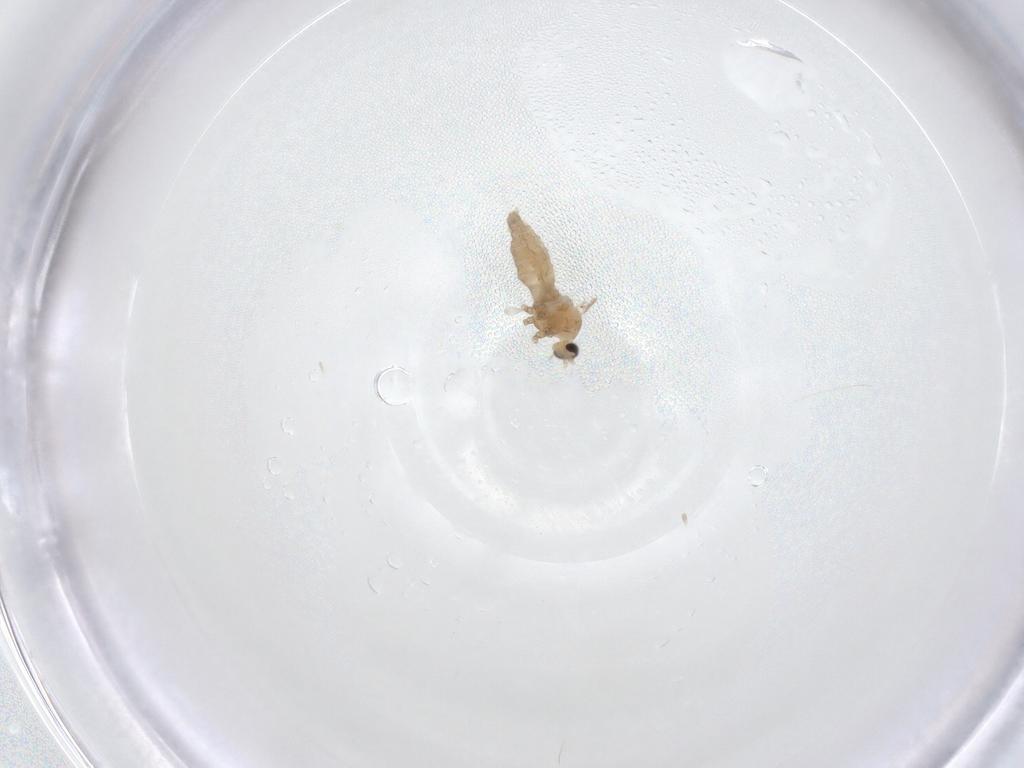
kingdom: Animalia
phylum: Arthropoda
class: Insecta
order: Diptera
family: Cecidomyiidae
